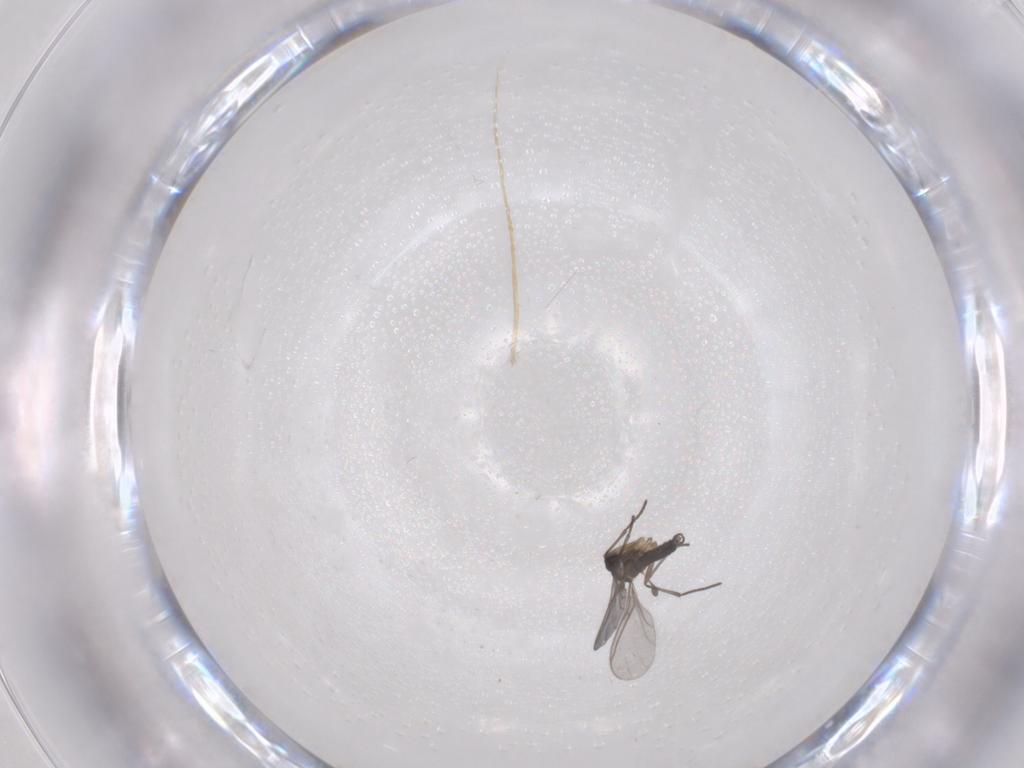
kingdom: Animalia
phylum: Arthropoda
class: Insecta
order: Diptera
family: Sciaridae
